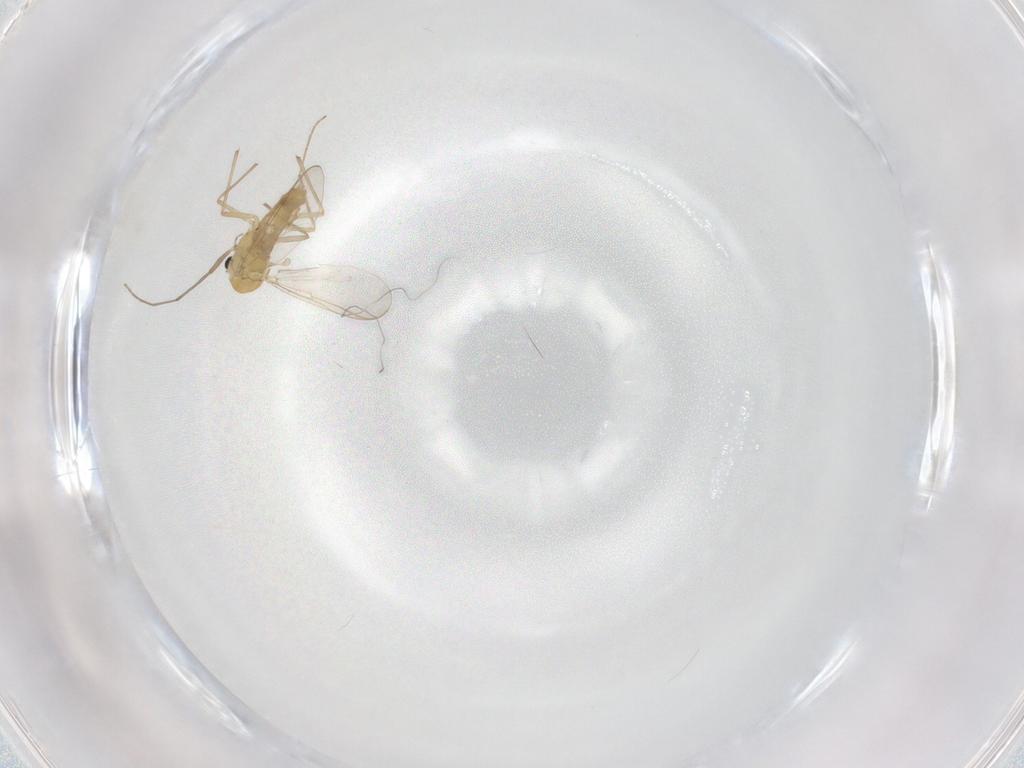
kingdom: Animalia
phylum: Arthropoda
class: Insecta
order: Diptera
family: Chironomidae
